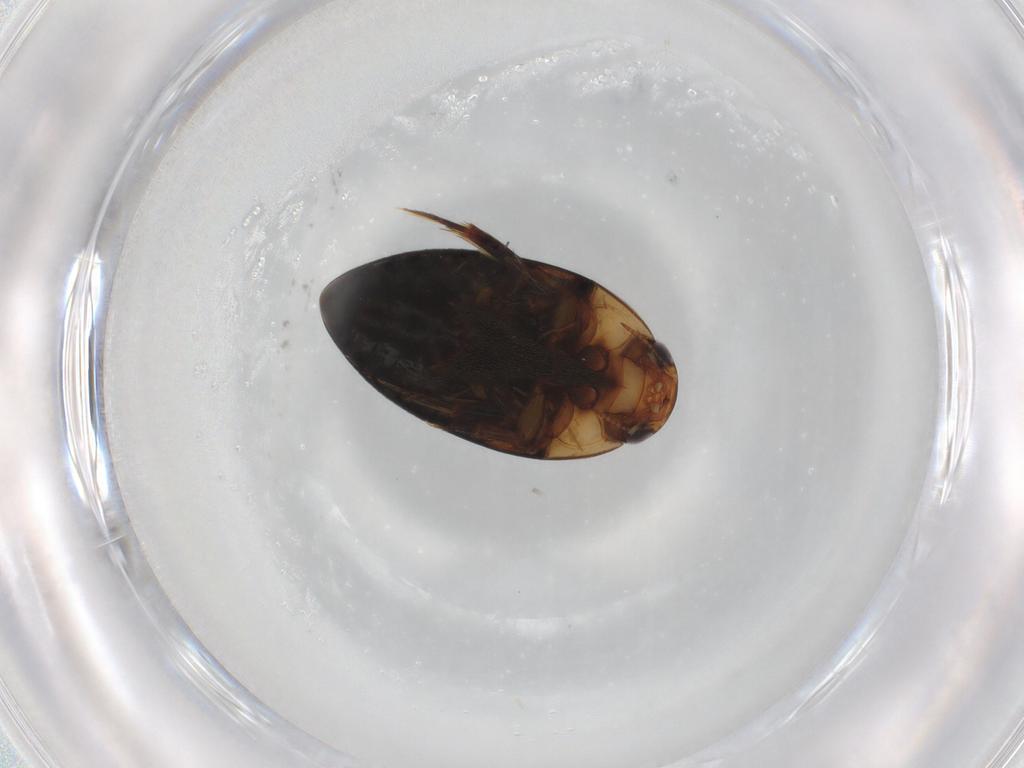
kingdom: Animalia
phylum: Arthropoda
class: Insecta
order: Coleoptera
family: Noteridae
